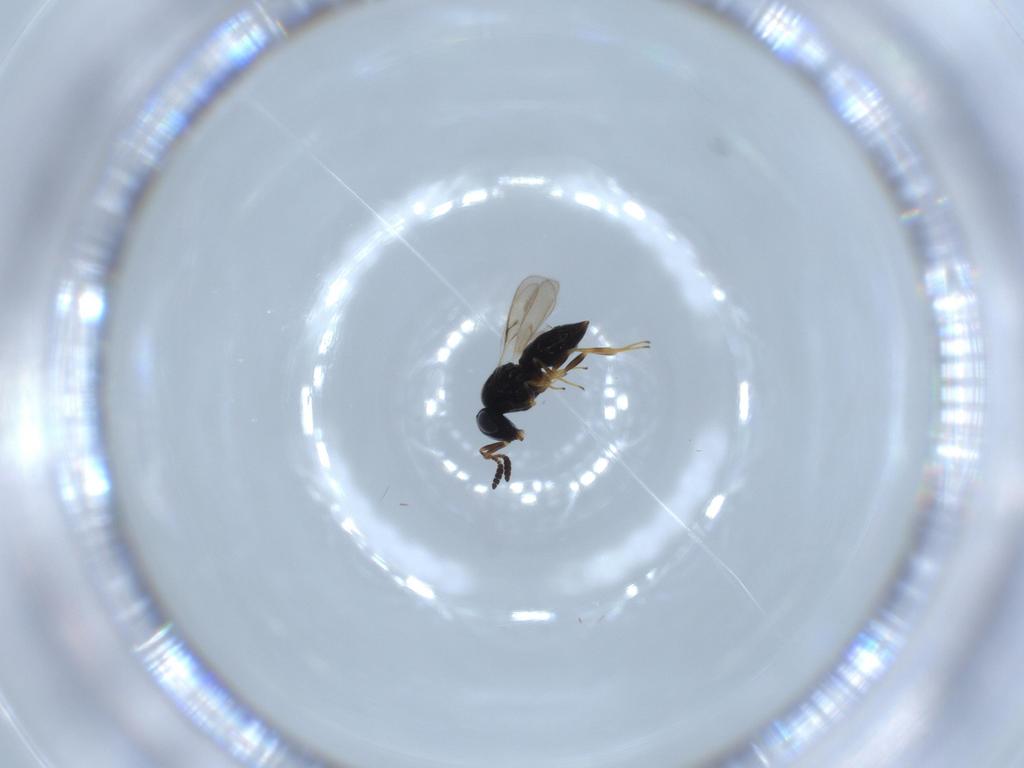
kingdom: Animalia
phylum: Arthropoda
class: Insecta
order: Hymenoptera
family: Scelionidae
